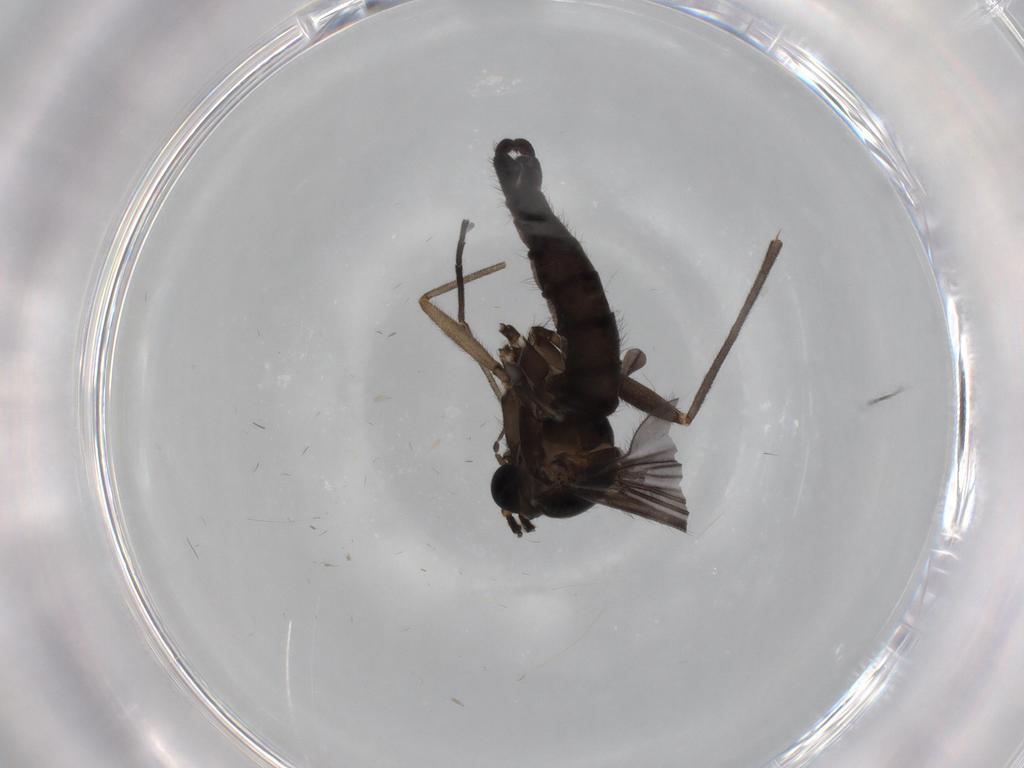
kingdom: Animalia
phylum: Arthropoda
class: Insecta
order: Diptera
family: Sciaridae
